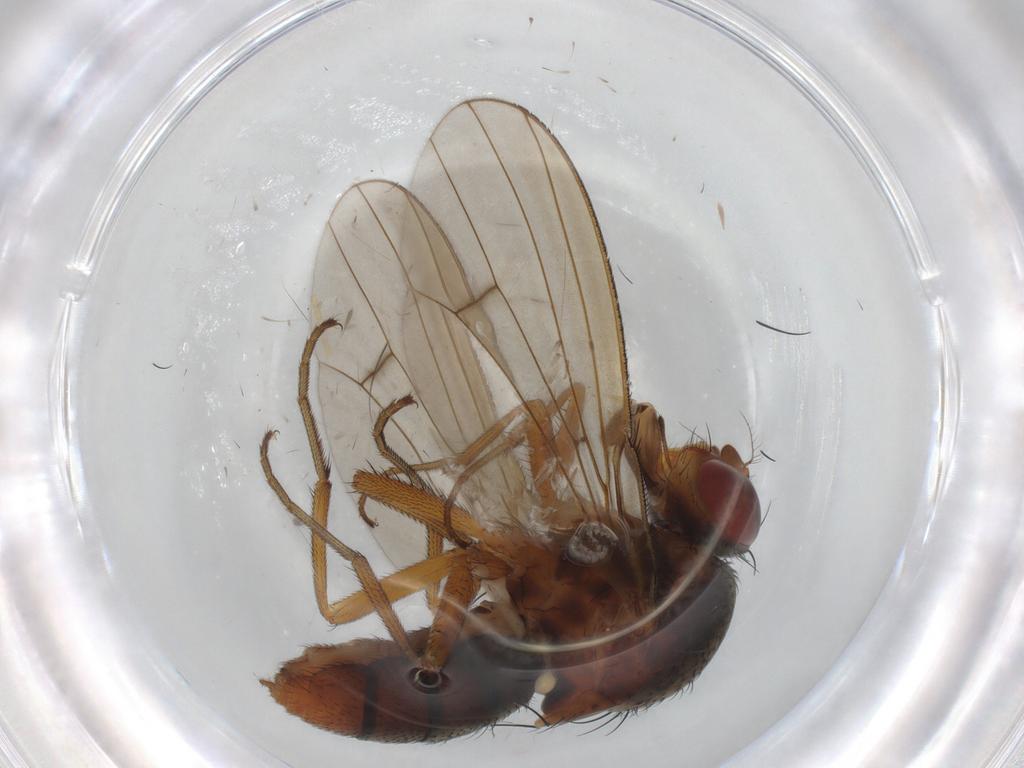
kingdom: Animalia
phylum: Arthropoda
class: Insecta
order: Diptera
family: Curtonotidae
